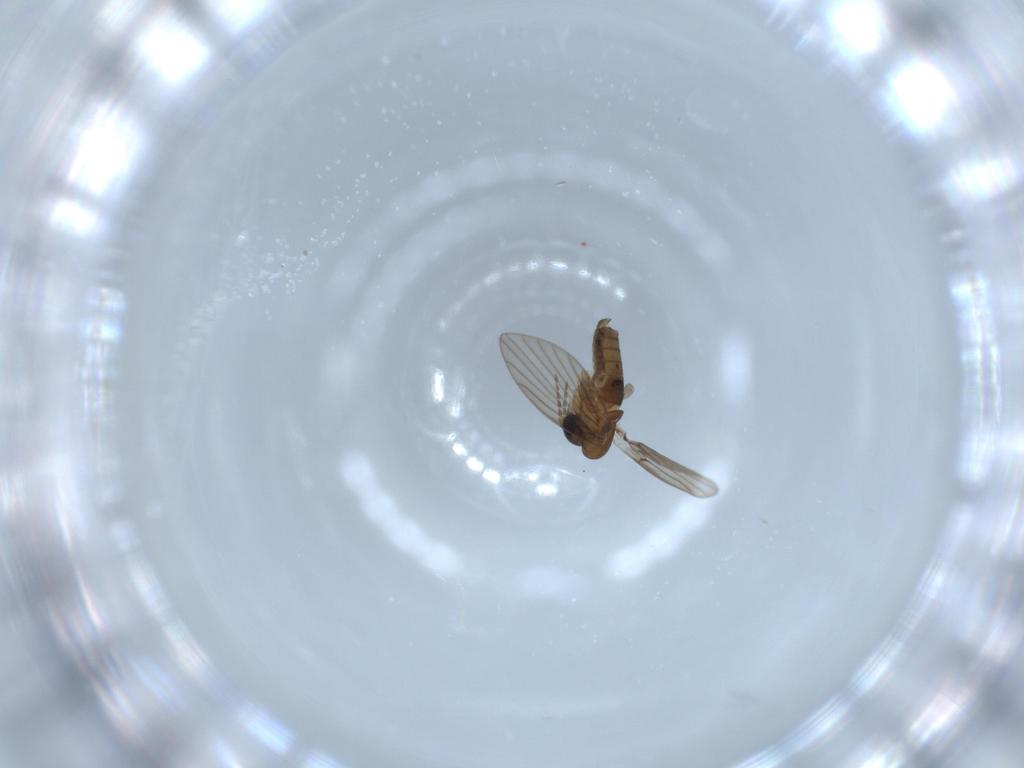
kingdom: Animalia
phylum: Arthropoda
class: Insecta
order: Diptera
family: Psychodidae
